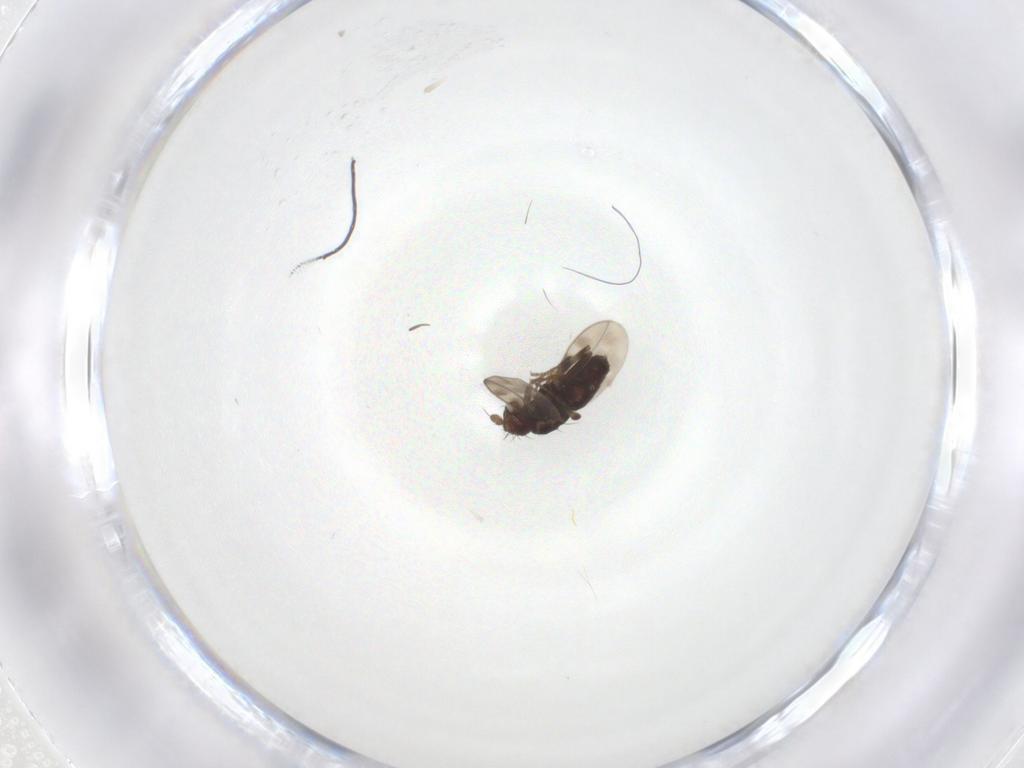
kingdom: Animalia
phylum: Arthropoda
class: Insecta
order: Diptera
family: Sphaeroceridae
